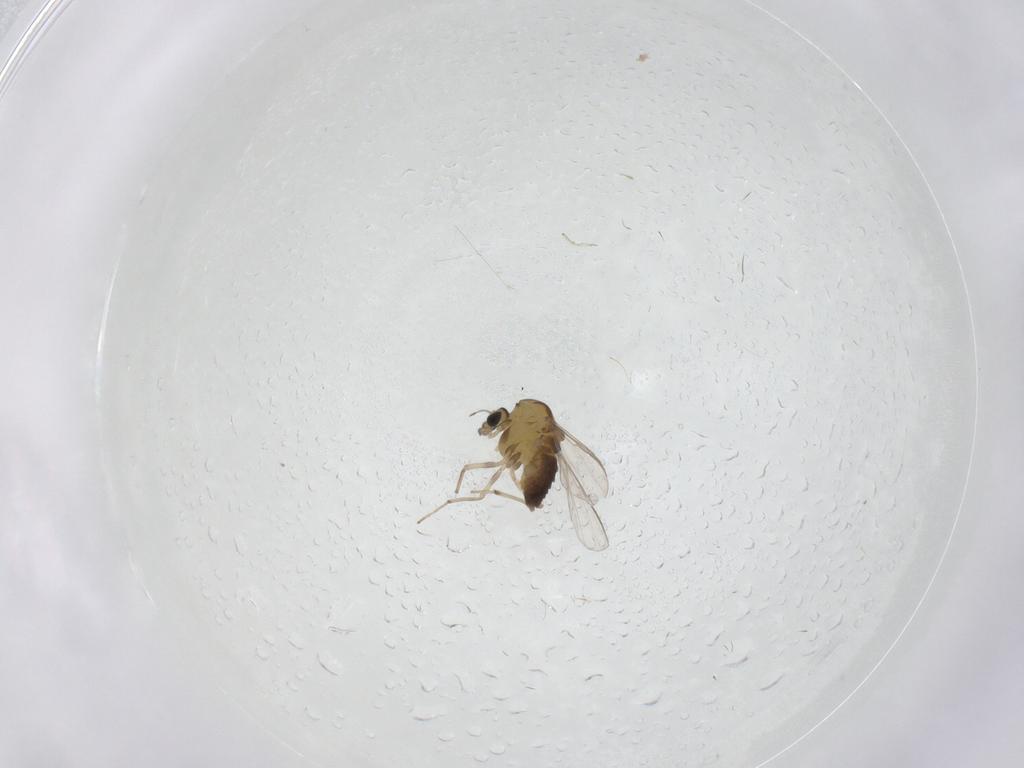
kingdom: Animalia
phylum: Arthropoda
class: Insecta
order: Diptera
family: Chironomidae
